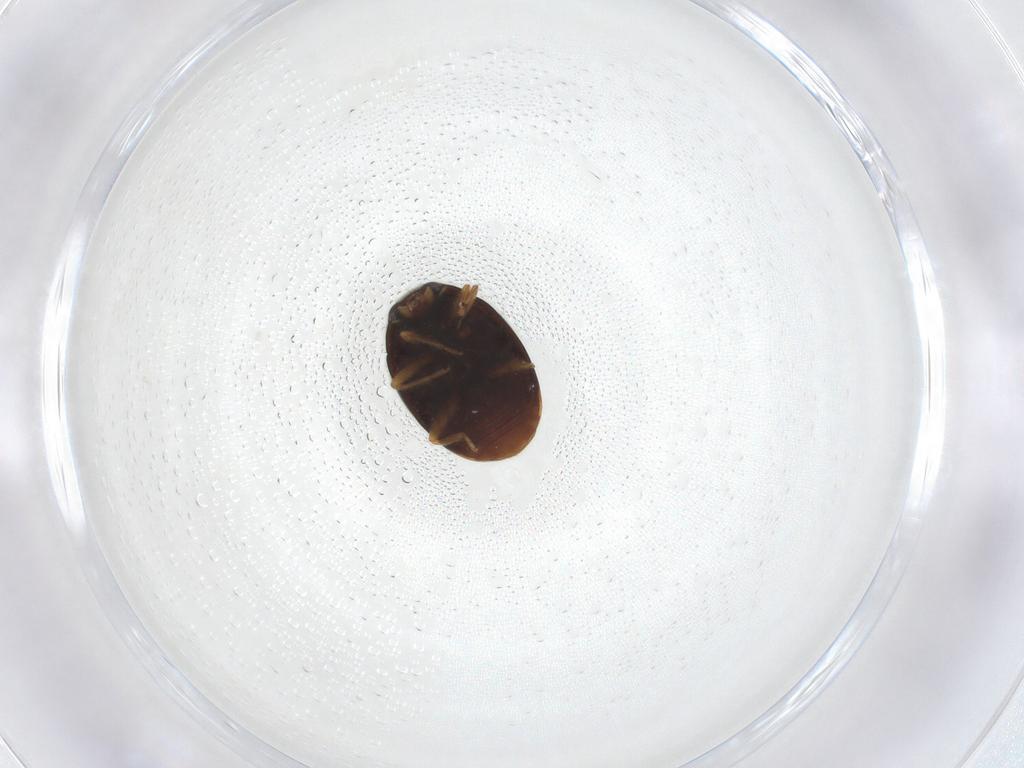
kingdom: Animalia
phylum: Arthropoda
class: Insecta
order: Coleoptera
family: Coccinellidae
